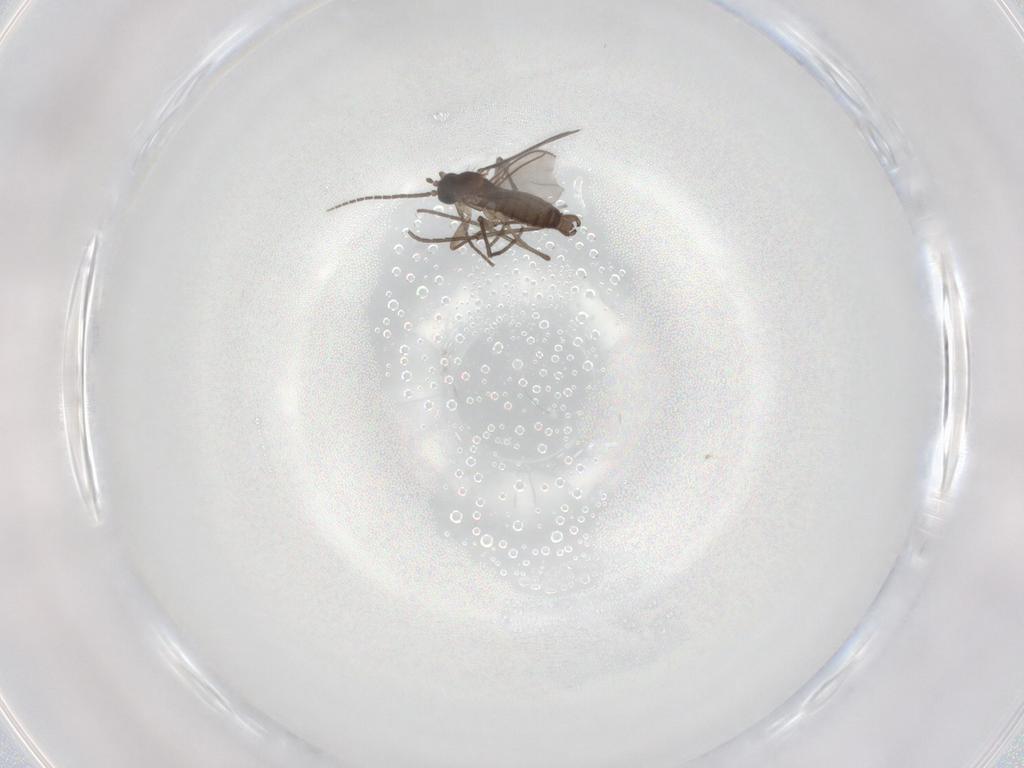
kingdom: Animalia
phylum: Arthropoda
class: Insecta
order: Diptera
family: Sciaridae
